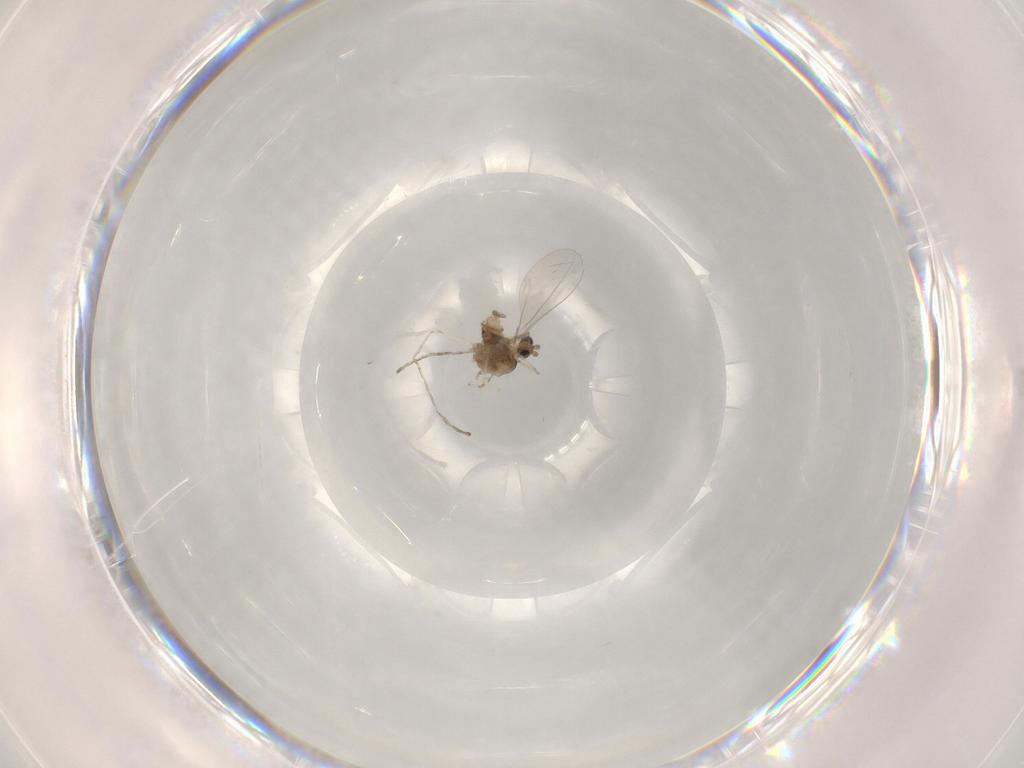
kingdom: Animalia
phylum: Arthropoda
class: Insecta
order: Diptera
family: Cecidomyiidae
